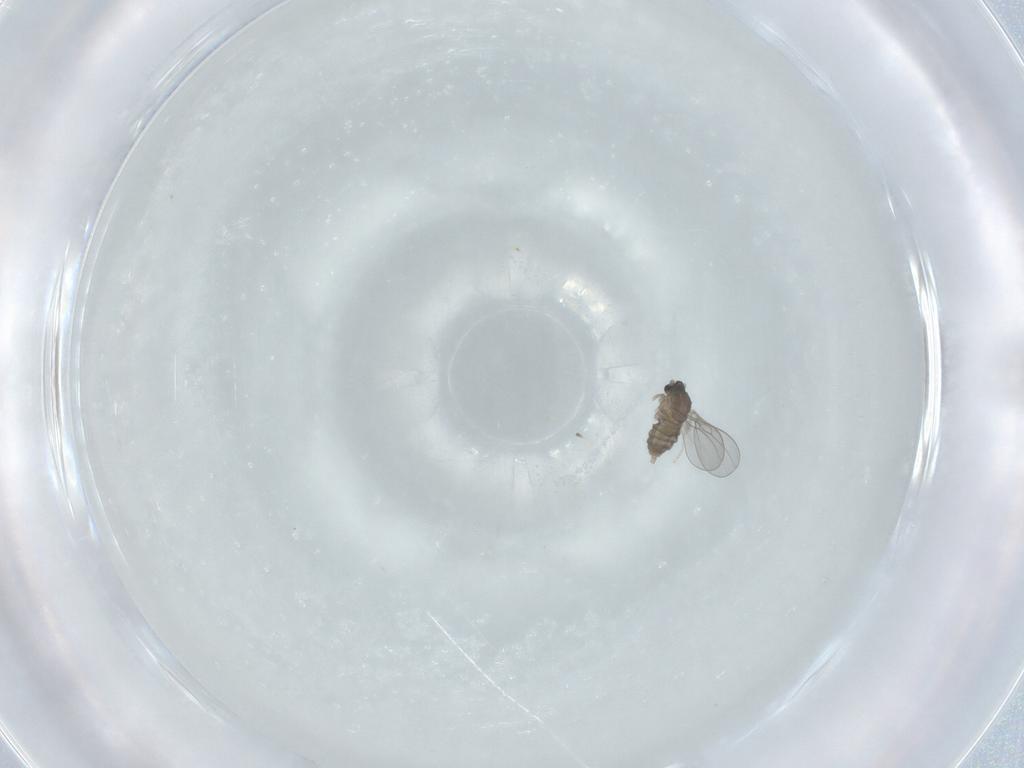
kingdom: Animalia
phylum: Arthropoda
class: Insecta
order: Diptera
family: Cecidomyiidae
